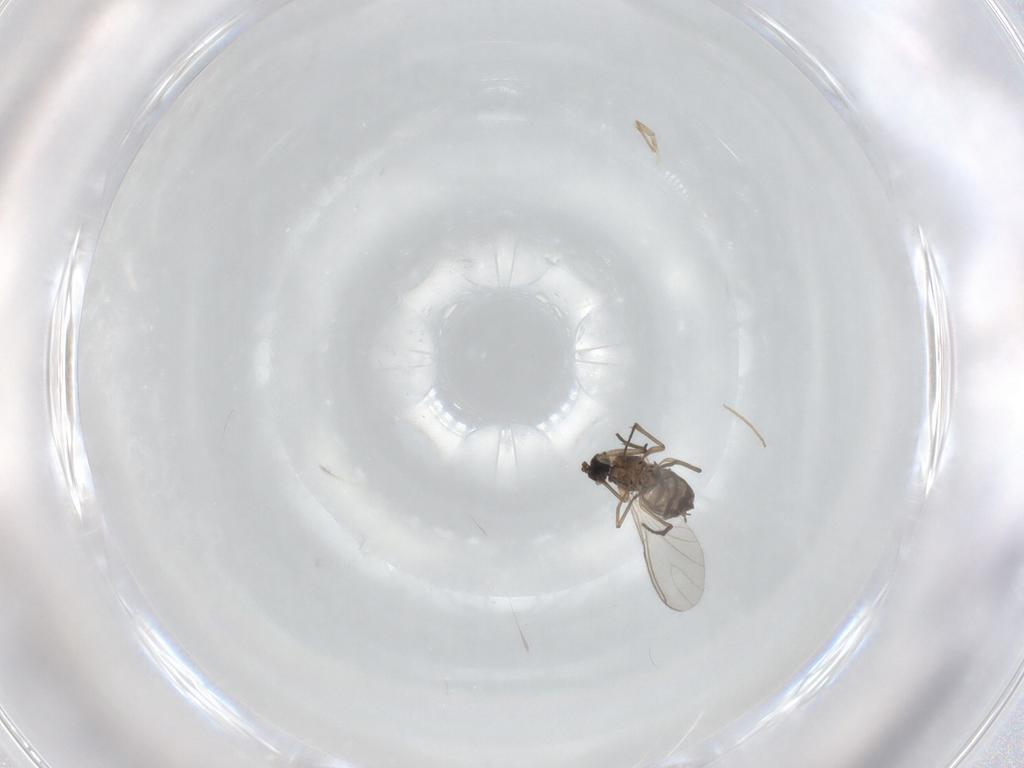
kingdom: Animalia
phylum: Arthropoda
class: Insecta
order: Diptera
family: Sciaridae
